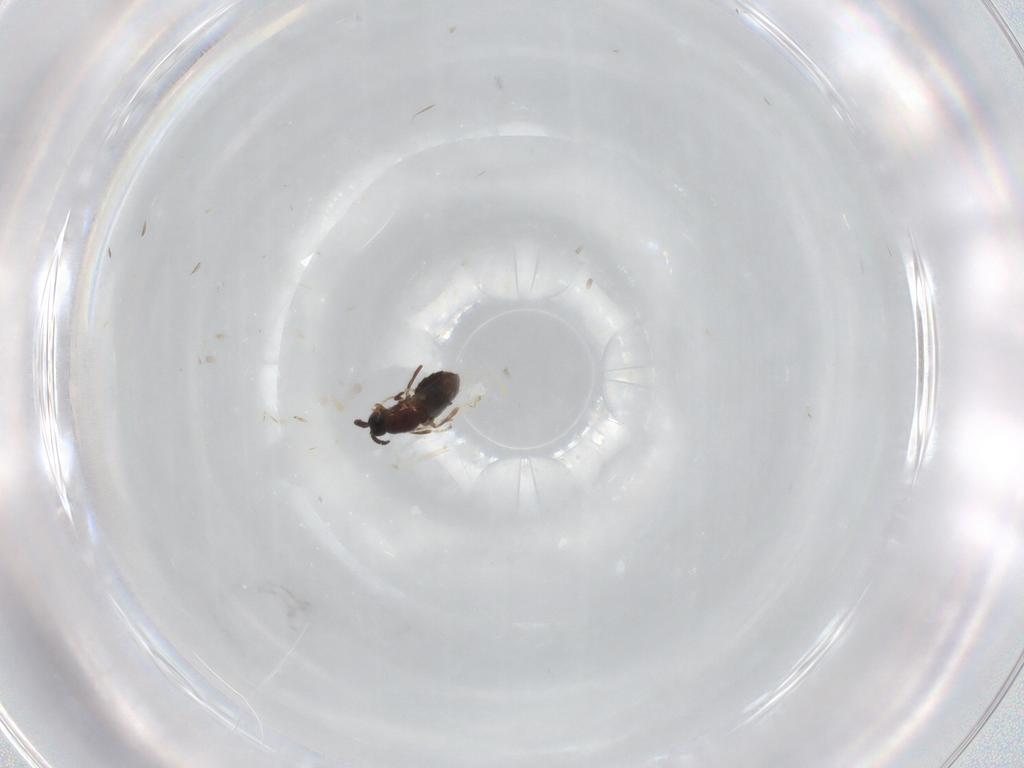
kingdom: Animalia
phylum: Arthropoda
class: Insecta
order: Diptera
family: Scatopsidae
